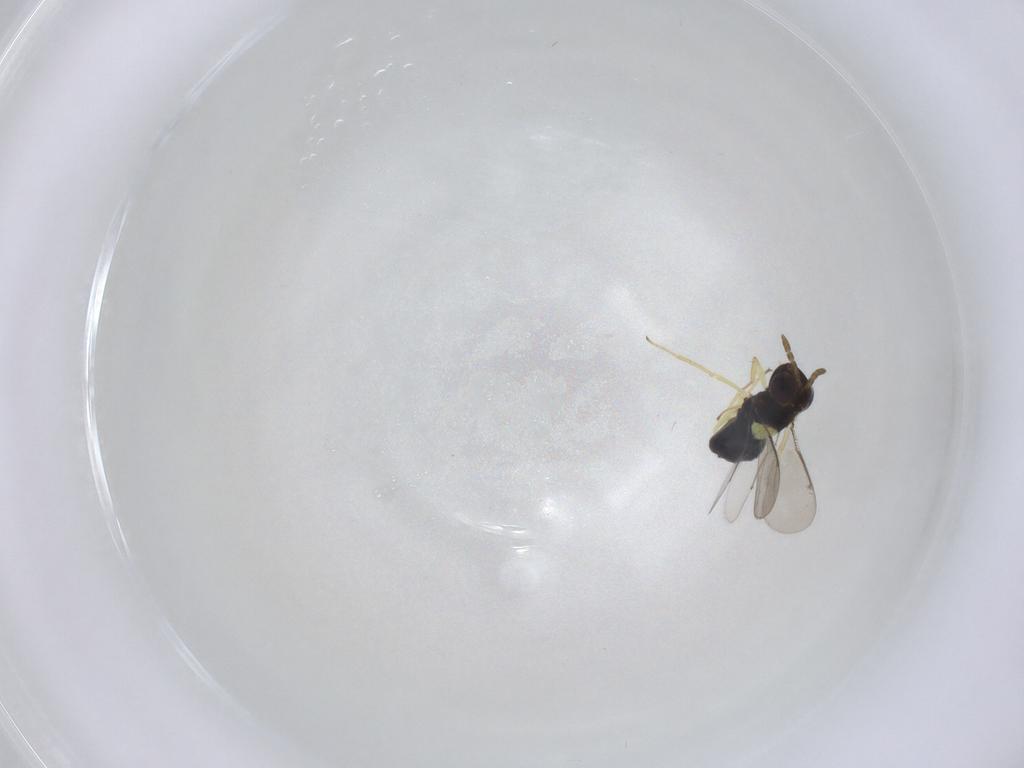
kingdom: Animalia
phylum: Arthropoda
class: Insecta
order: Hymenoptera
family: Aphelinidae
